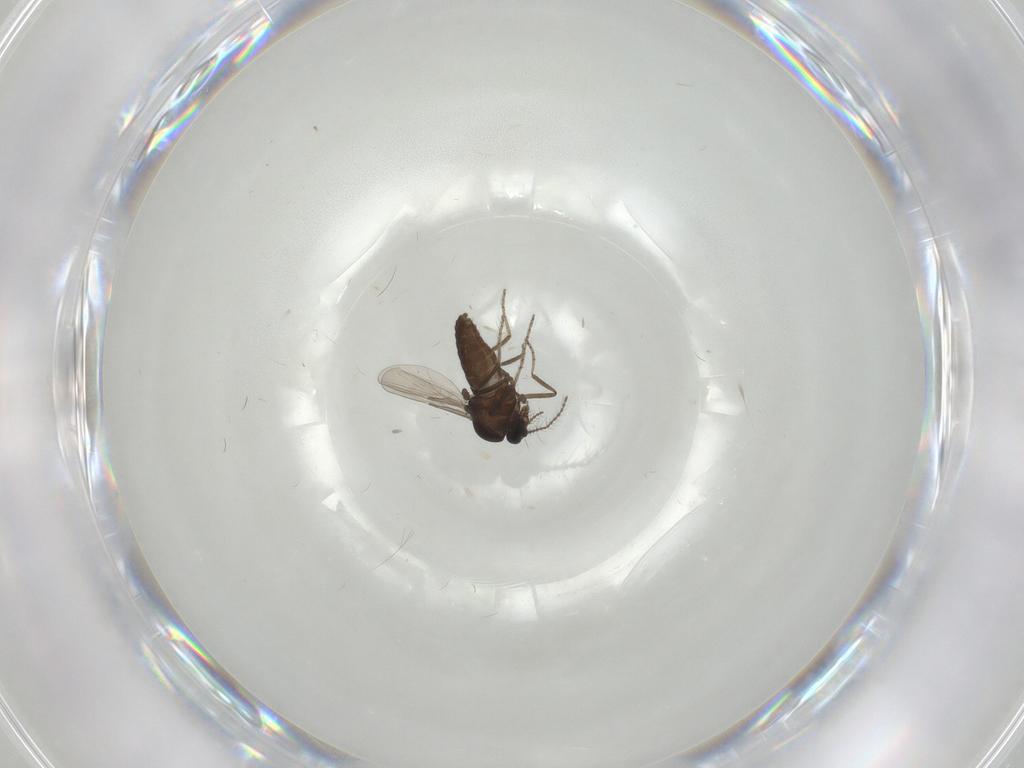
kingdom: Animalia
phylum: Arthropoda
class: Insecta
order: Diptera
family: Ceratopogonidae
